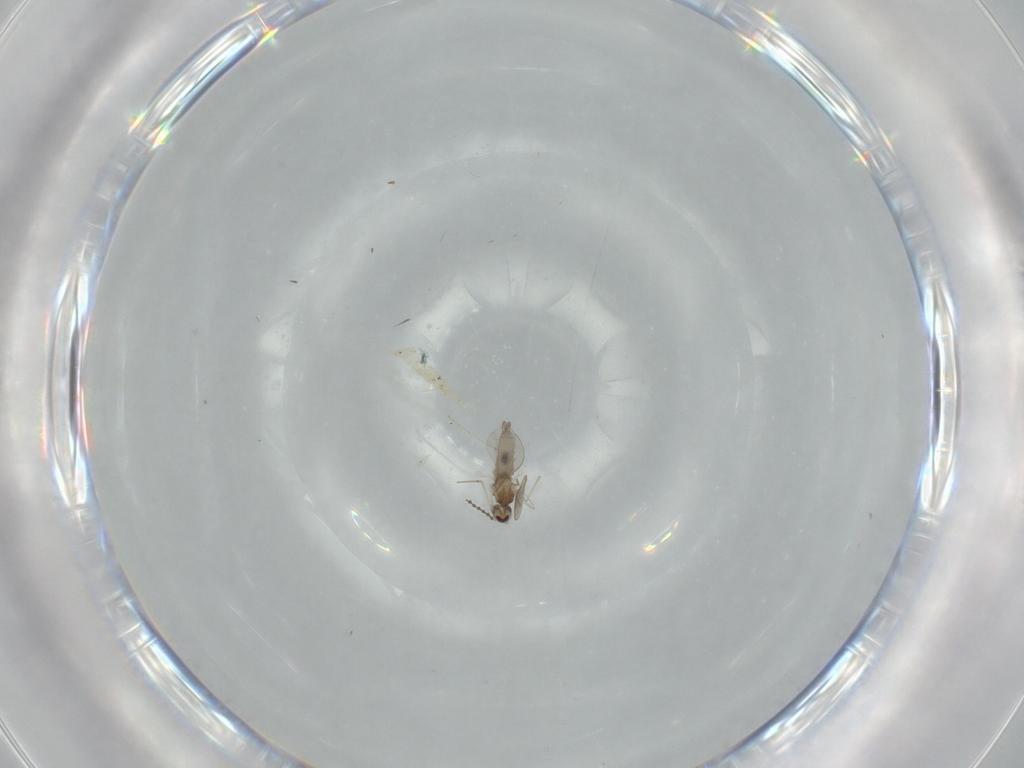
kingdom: Animalia
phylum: Arthropoda
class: Insecta
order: Diptera
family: Cecidomyiidae
